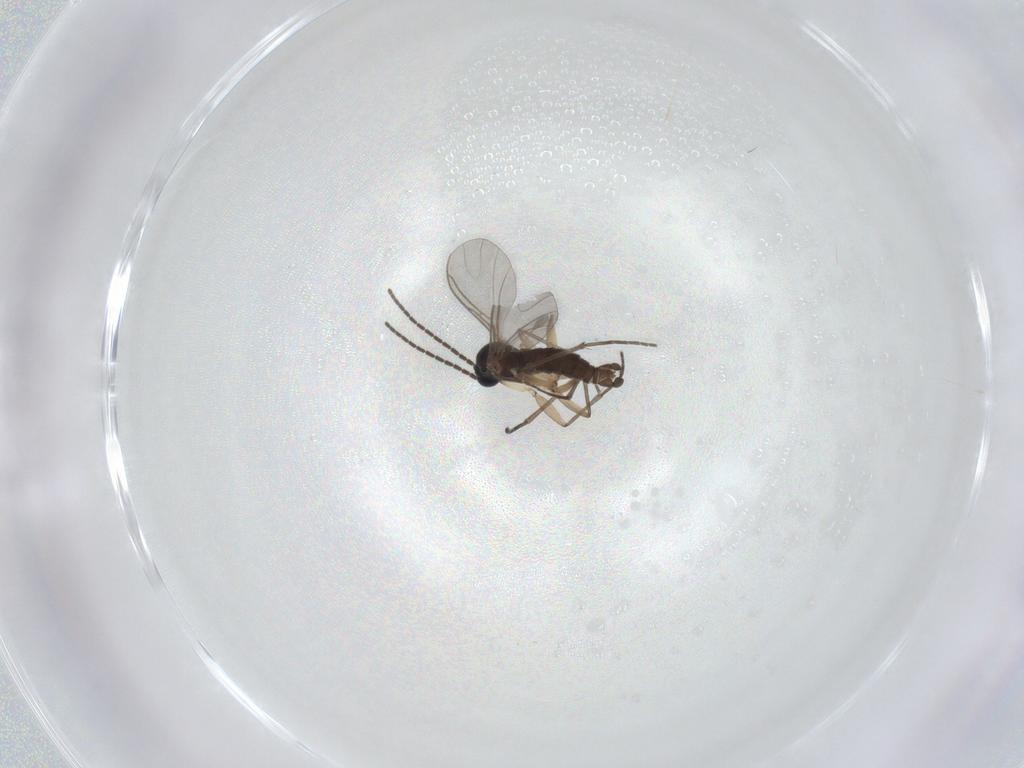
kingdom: Animalia
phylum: Arthropoda
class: Insecta
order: Diptera
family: Sciaridae
